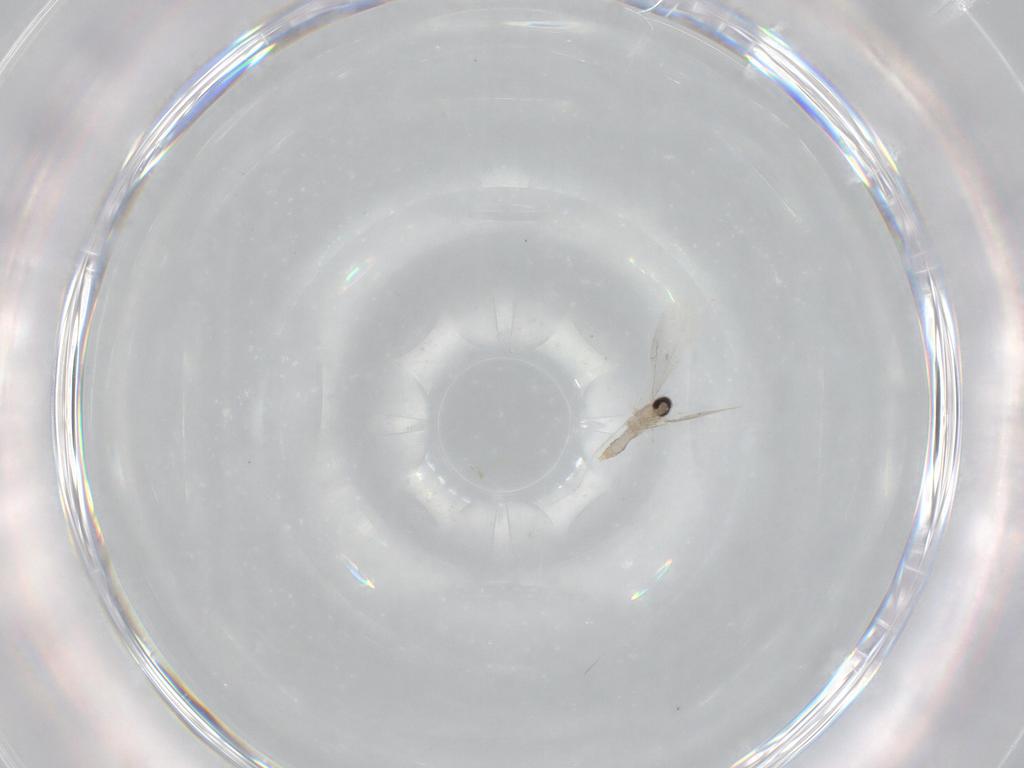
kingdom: Animalia
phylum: Arthropoda
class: Insecta
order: Diptera
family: Cecidomyiidae
